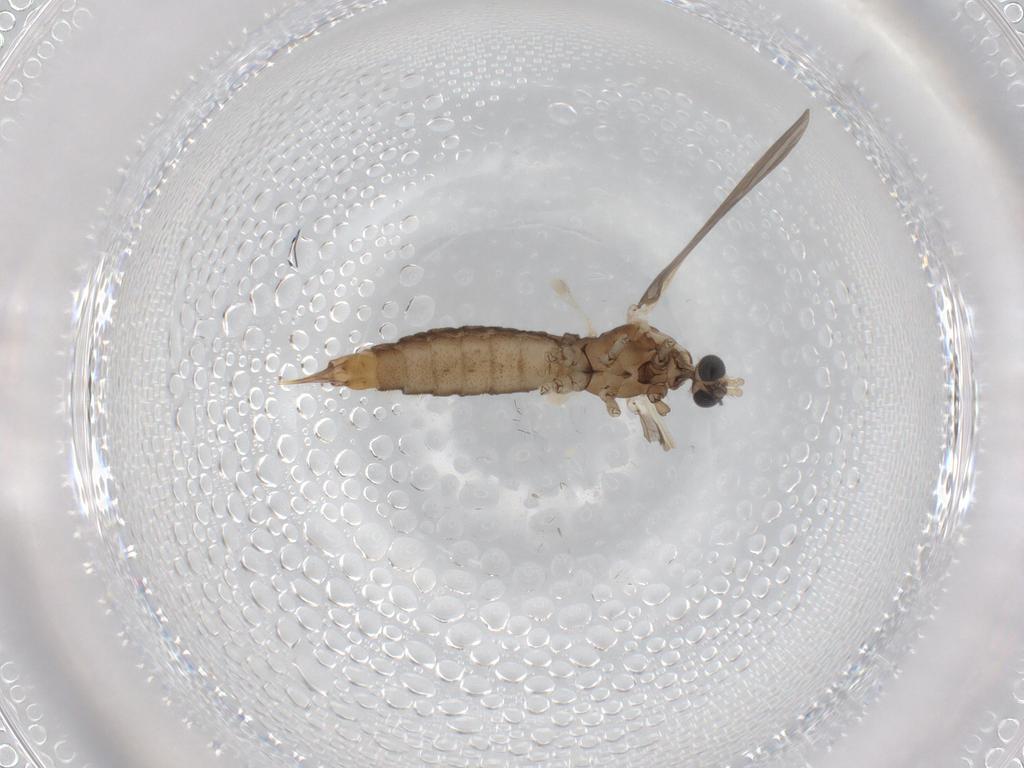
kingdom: Animalia
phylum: Arthropoda
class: Insecta
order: Diptera
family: Limoniidae
